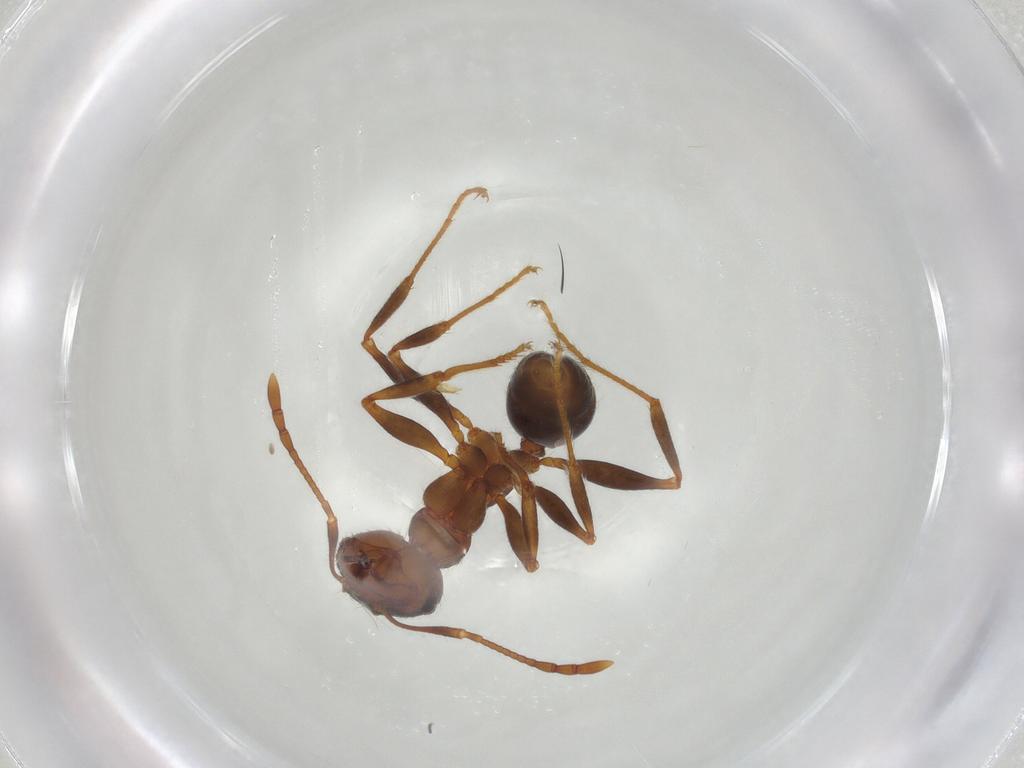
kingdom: Animalia
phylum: Arthropoda
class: Insecta
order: Hymenoptera
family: Formicidae
